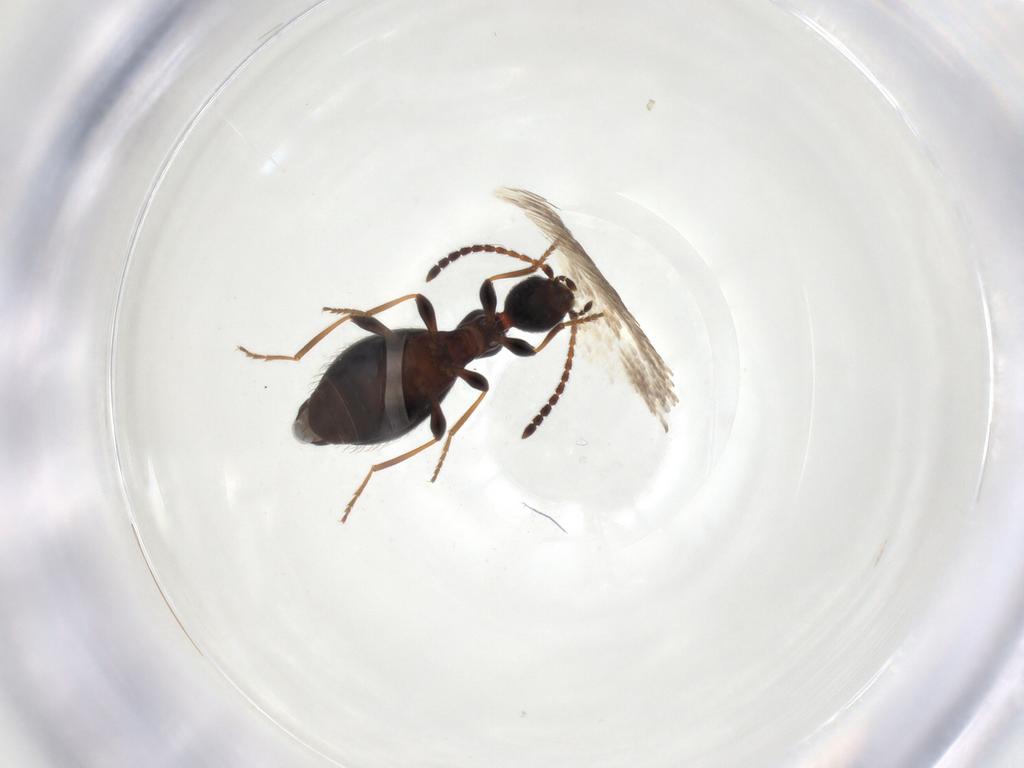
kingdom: Animalia
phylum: Arthropoda
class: Insecta
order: Coleoptera
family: Anthicidae
